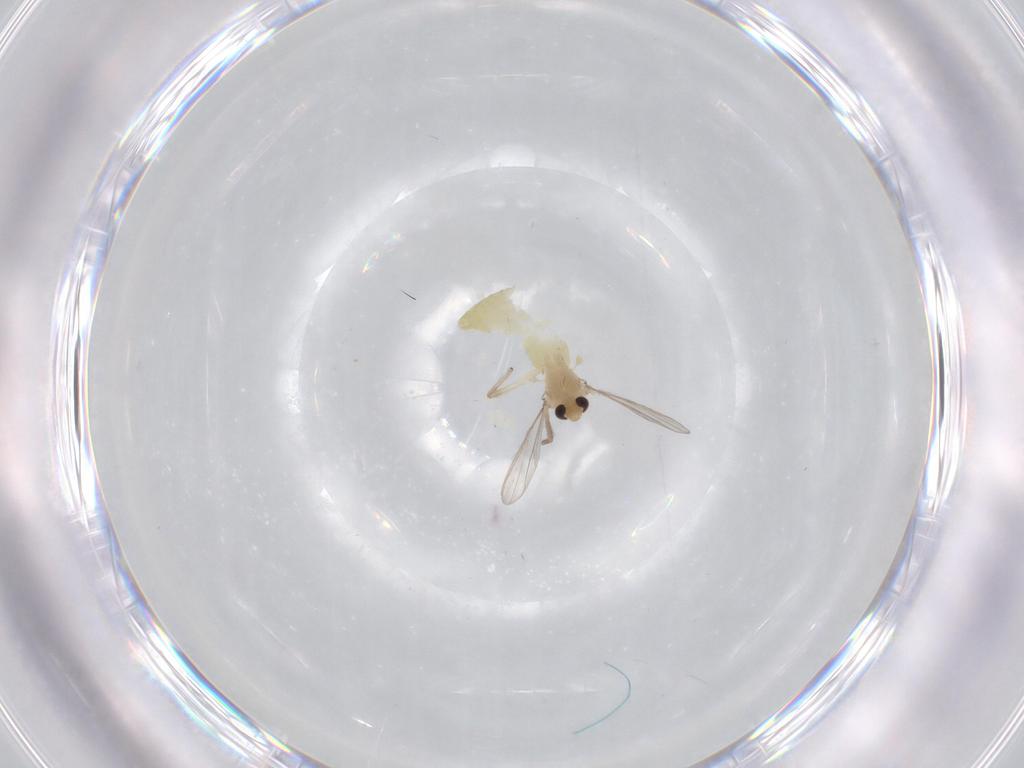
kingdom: Animalia
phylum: Arthropoda
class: Insecta
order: Diptera
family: Chironomidae
